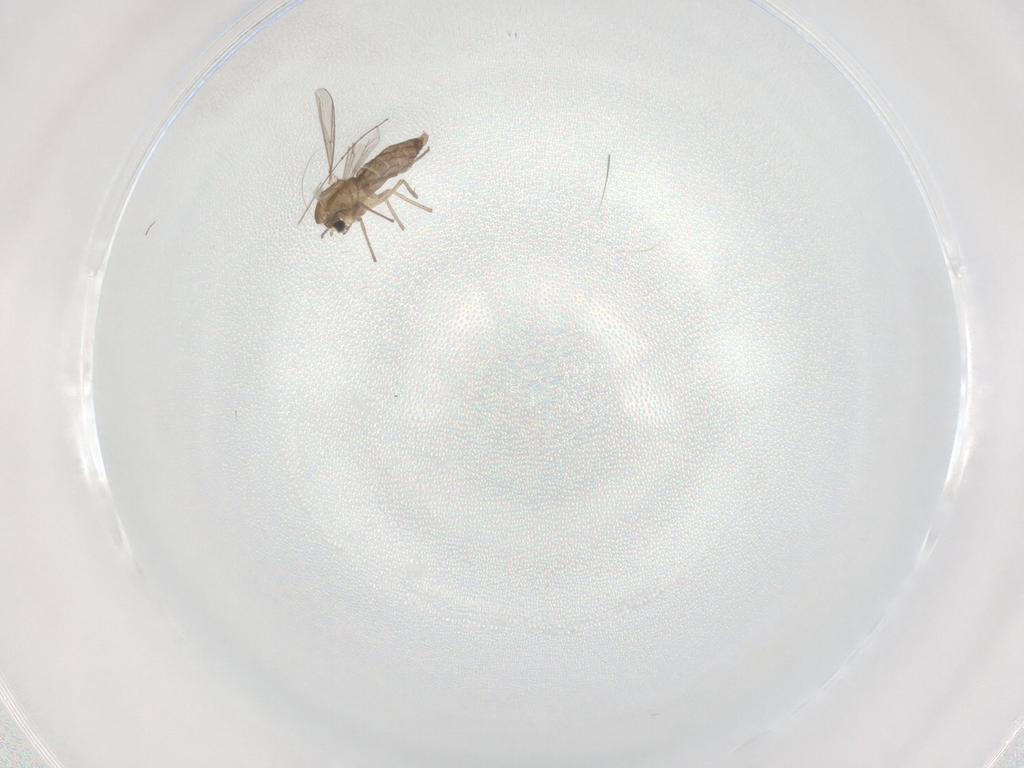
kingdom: Animalia
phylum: Arthropoda
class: Insecta
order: Diptera
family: Chironomidae
